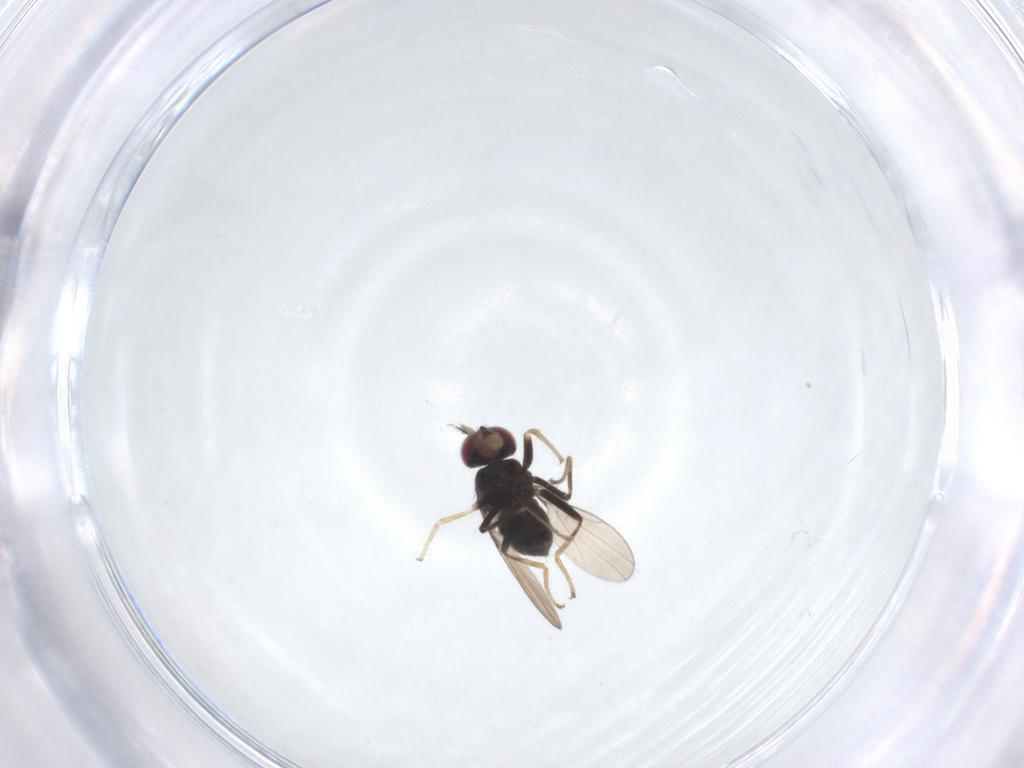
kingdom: Animalia
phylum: Arthropoda
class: Insecta
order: Diptera
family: Ephydridae
